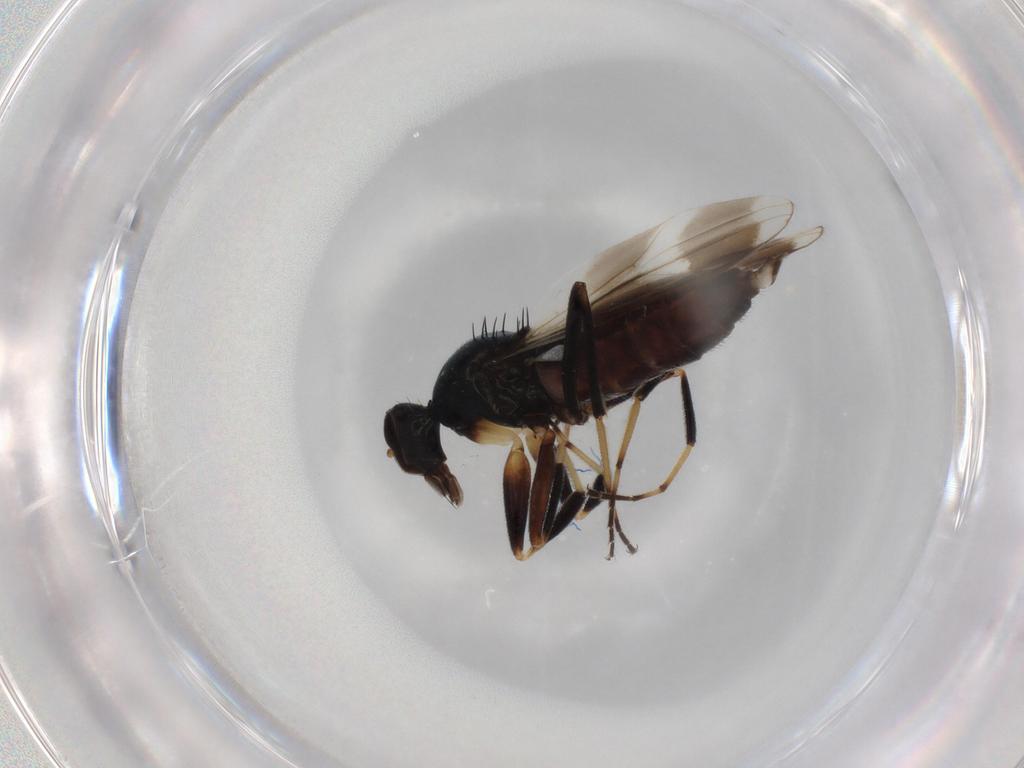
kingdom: Animalia
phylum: Arthropoda
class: Insecta
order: Diptera
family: Hybotidae
